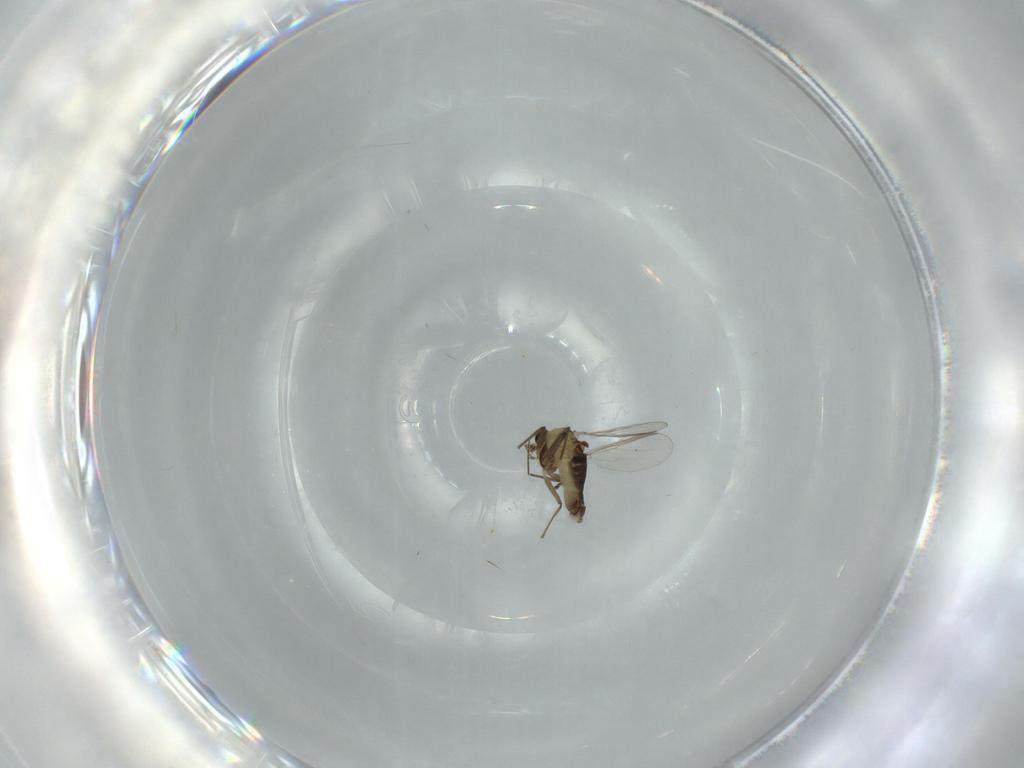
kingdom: Animalia
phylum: Arthropoda
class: Insecta
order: Diptera
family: Chironomidae
